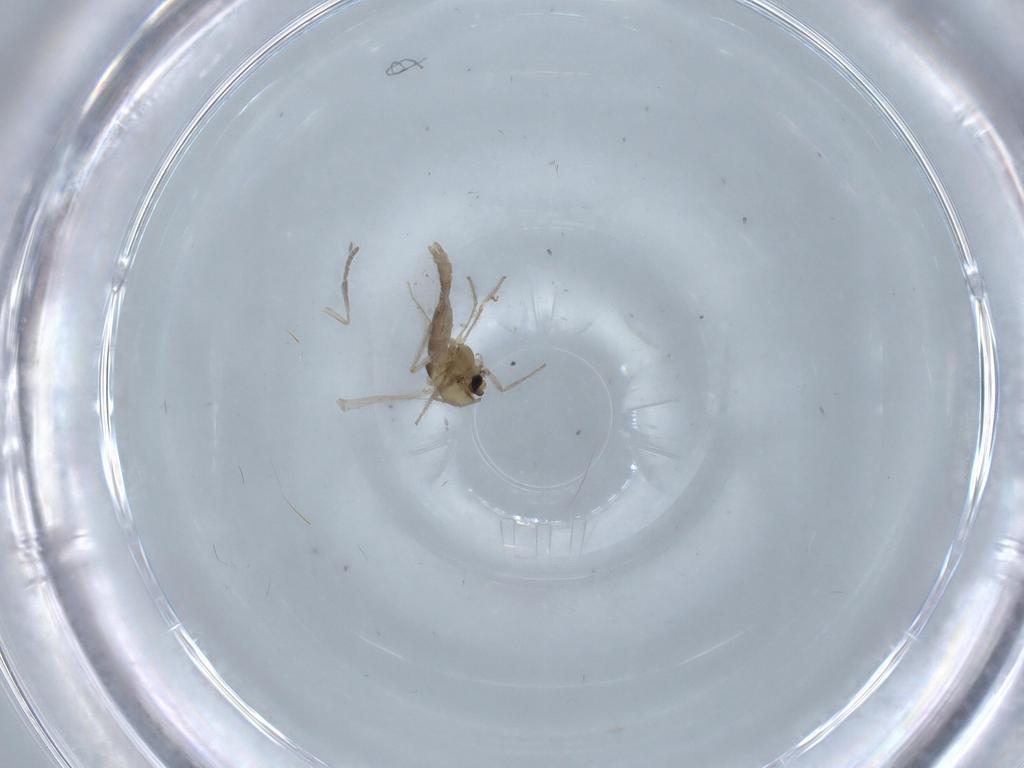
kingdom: Animalia
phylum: Arthropoda
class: Insecta
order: Diptera
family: Chironomidae
